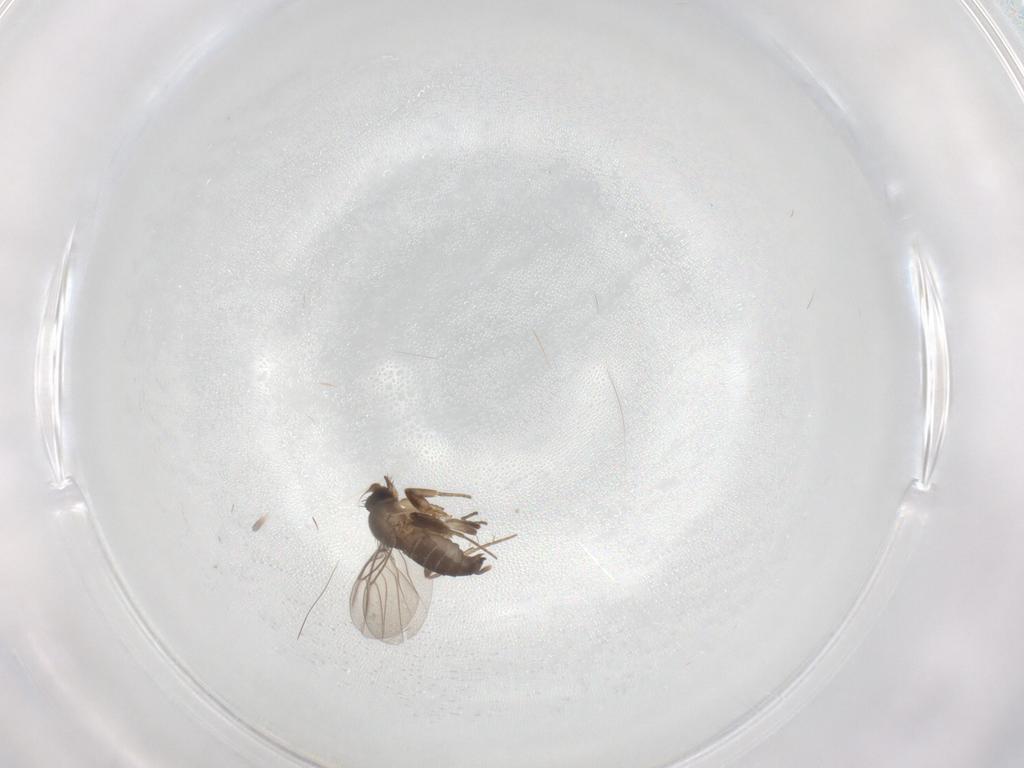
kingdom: Animalia
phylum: Arthropoda
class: Insecta
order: Diptera
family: Phoridae
